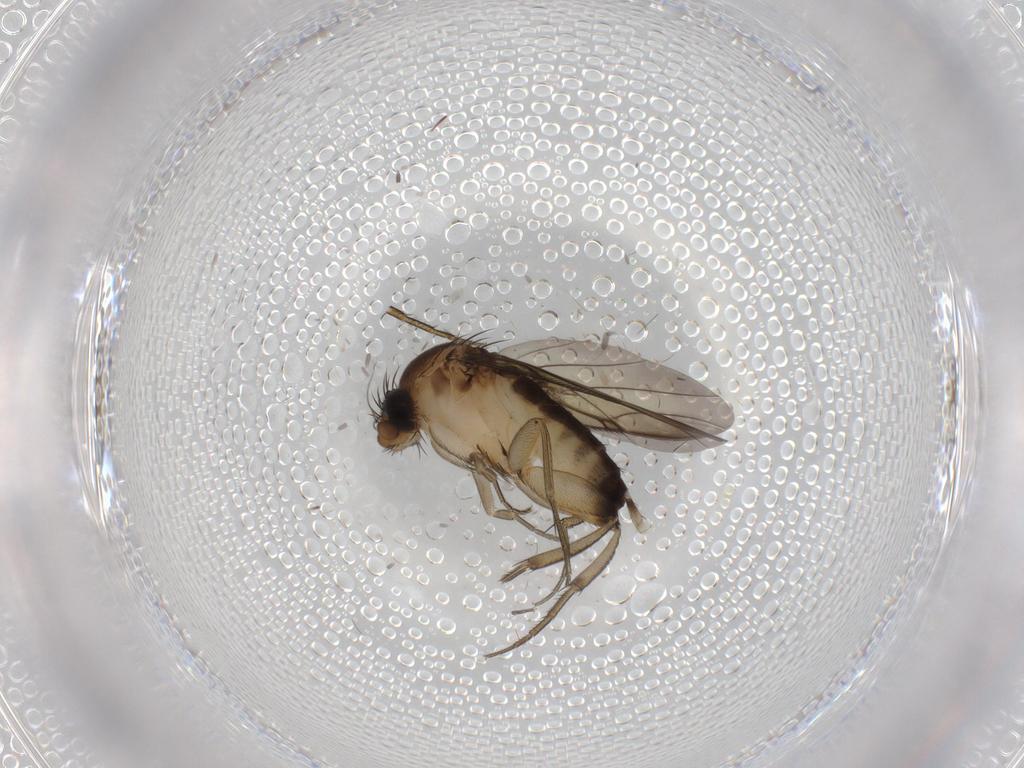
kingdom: Animalia
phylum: Arthropoda
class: Insecta
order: Diptera
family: Phoridae
